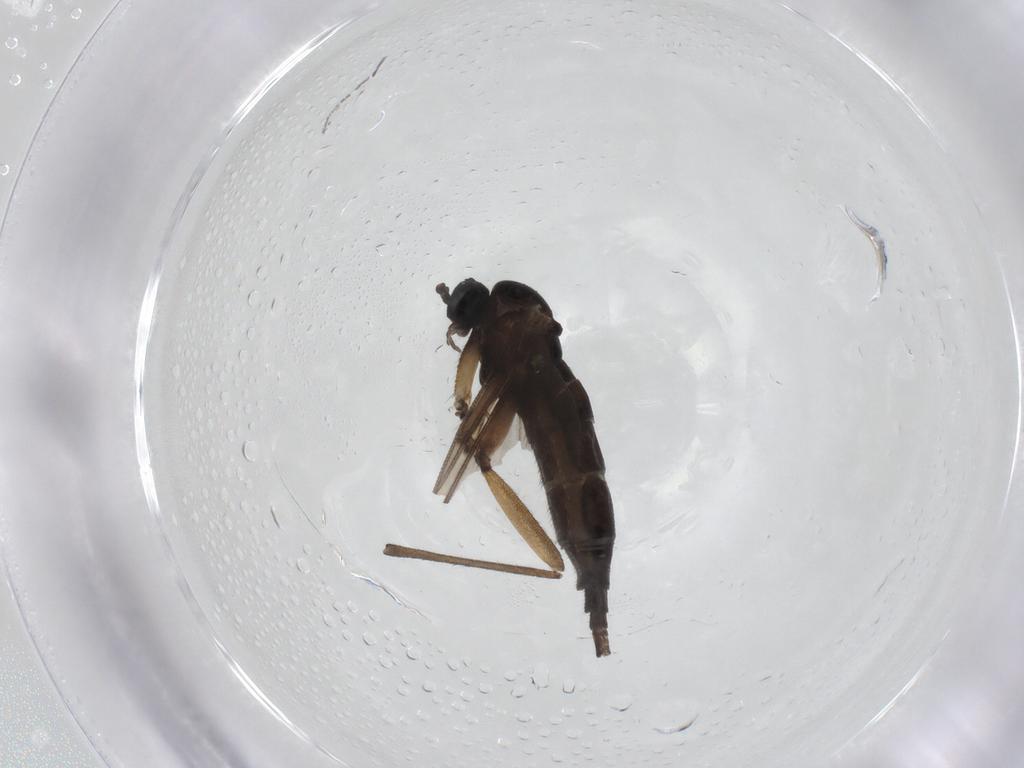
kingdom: Animalia
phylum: Arthropoda
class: Insecta
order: Diptera
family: Sciaridae
